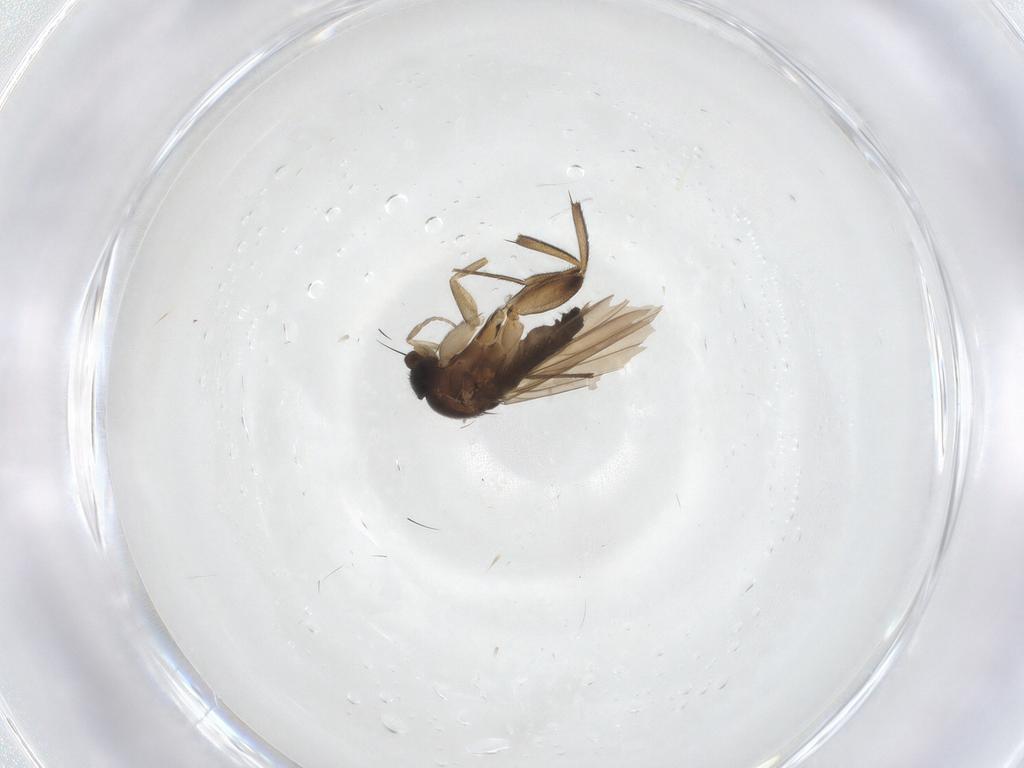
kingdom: Animalia
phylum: Arthropoda
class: Insecta
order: Diptera
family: Chironomidae
